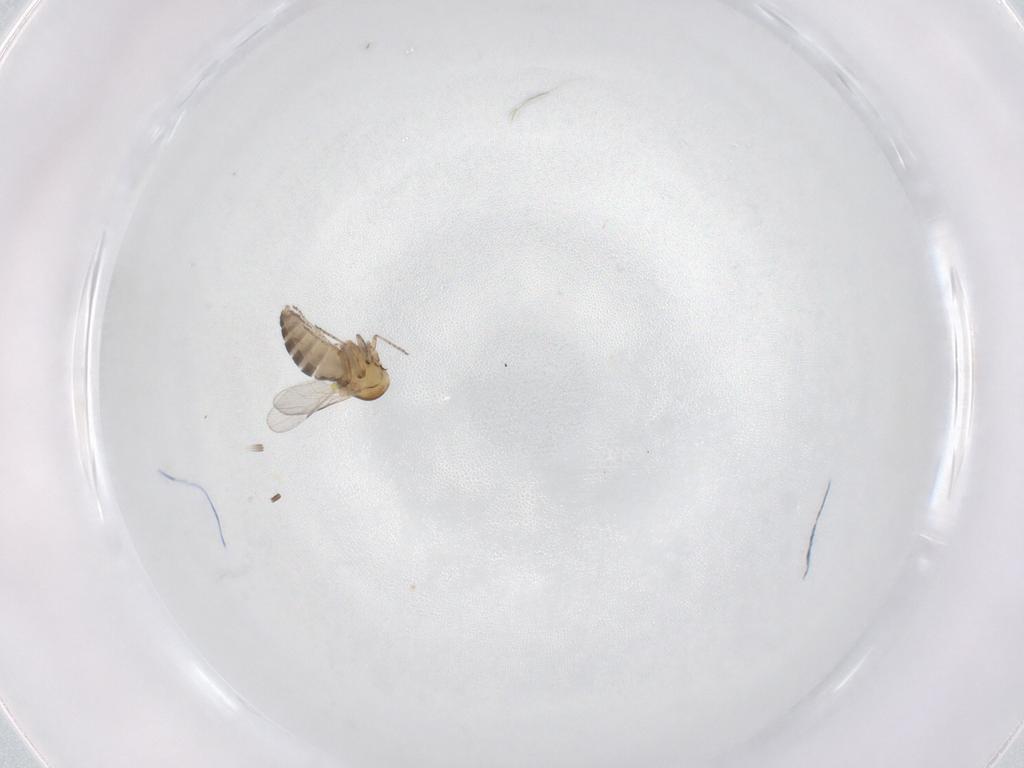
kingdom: Animalia
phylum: Arthropoda
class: Insecta
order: Diptera
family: Ceratopogonidae
